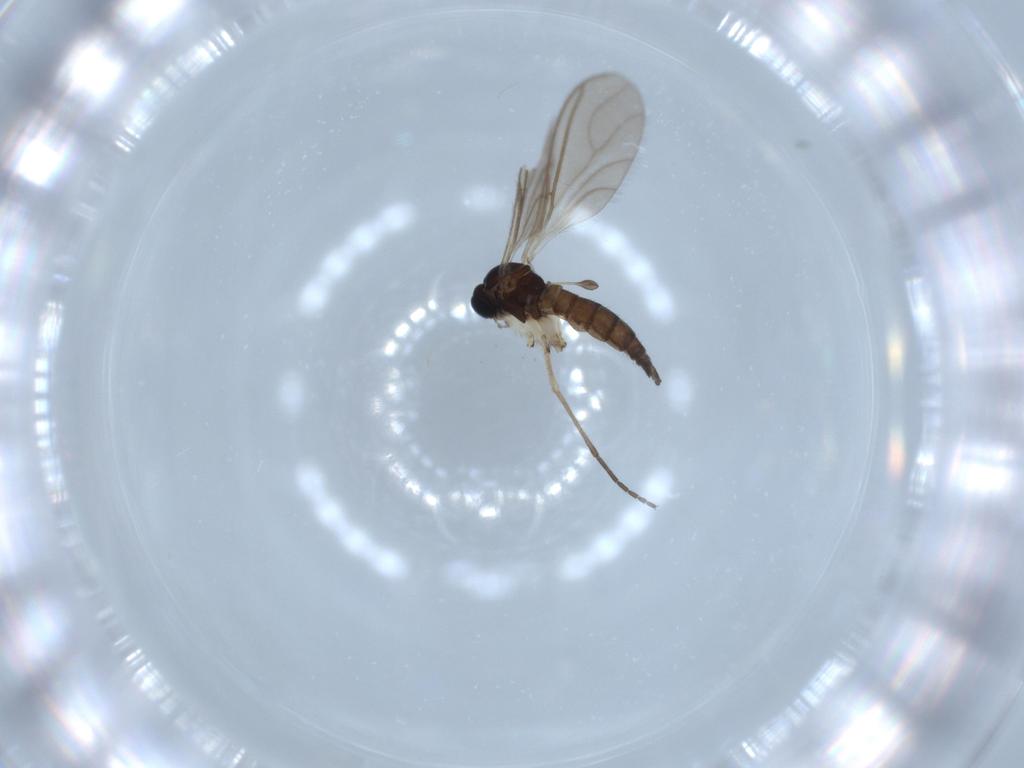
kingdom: Animalia
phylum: Arthropoda
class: Insecta
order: Diptera
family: Sciaridae
